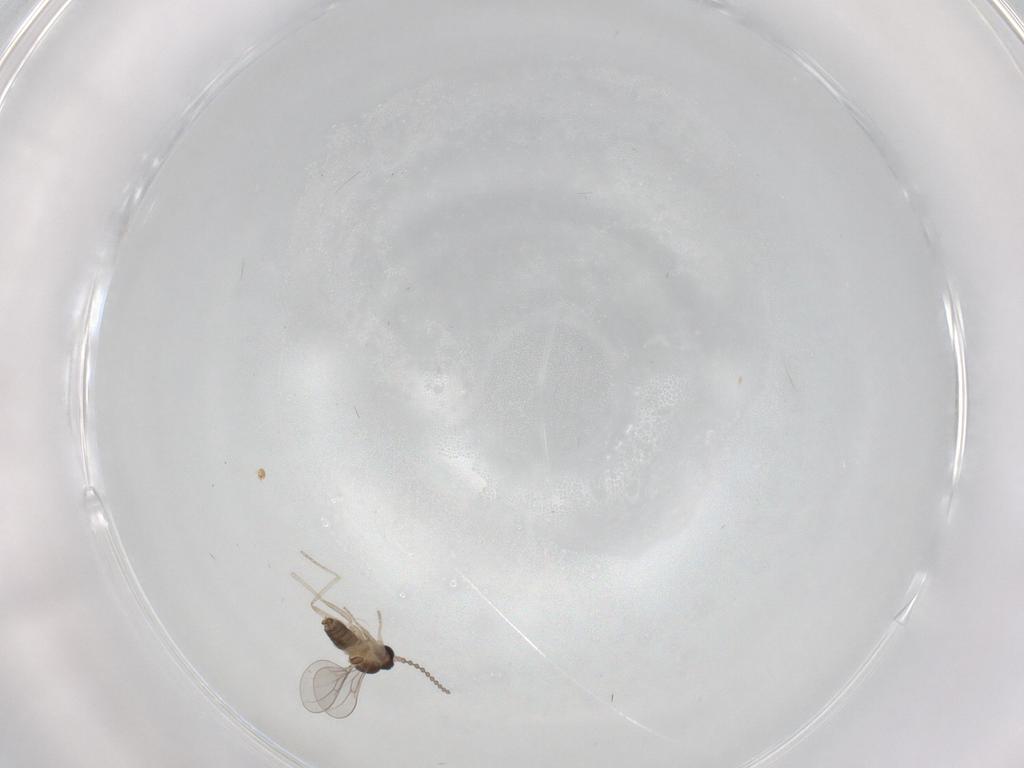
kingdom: Animalia
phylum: Arthropoda
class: Insecta
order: Diptera
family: Cecidomyiidae
